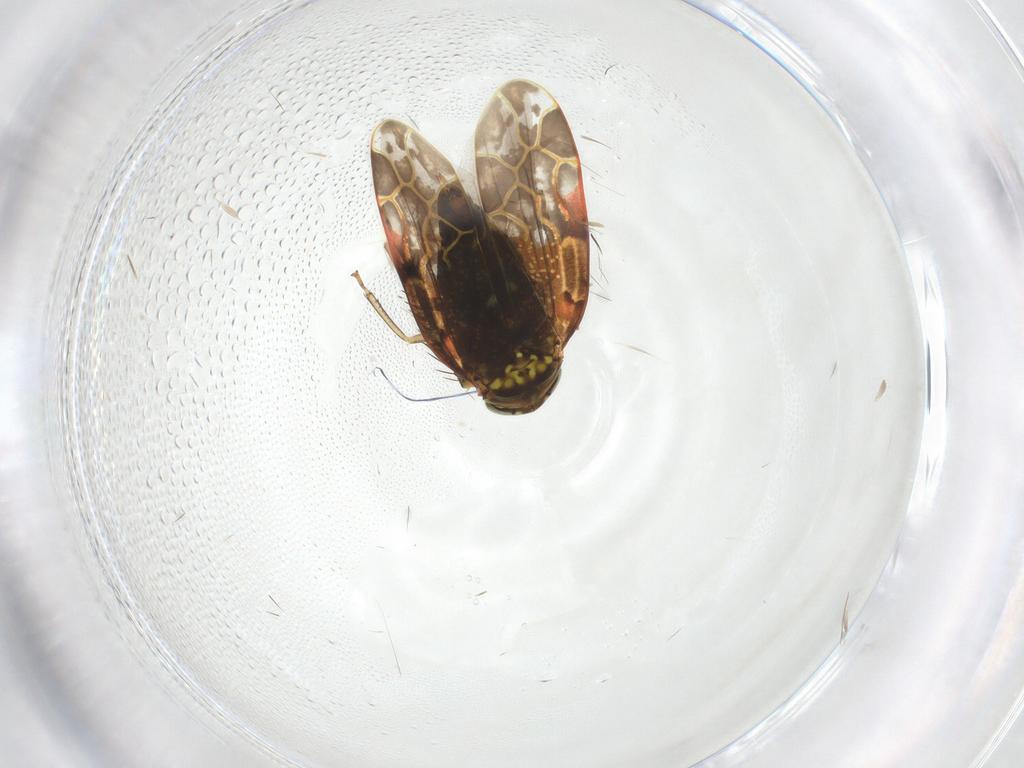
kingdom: Animalia
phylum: Arthropoda
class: Insecta
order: Hemiptera
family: Cicadellidae
